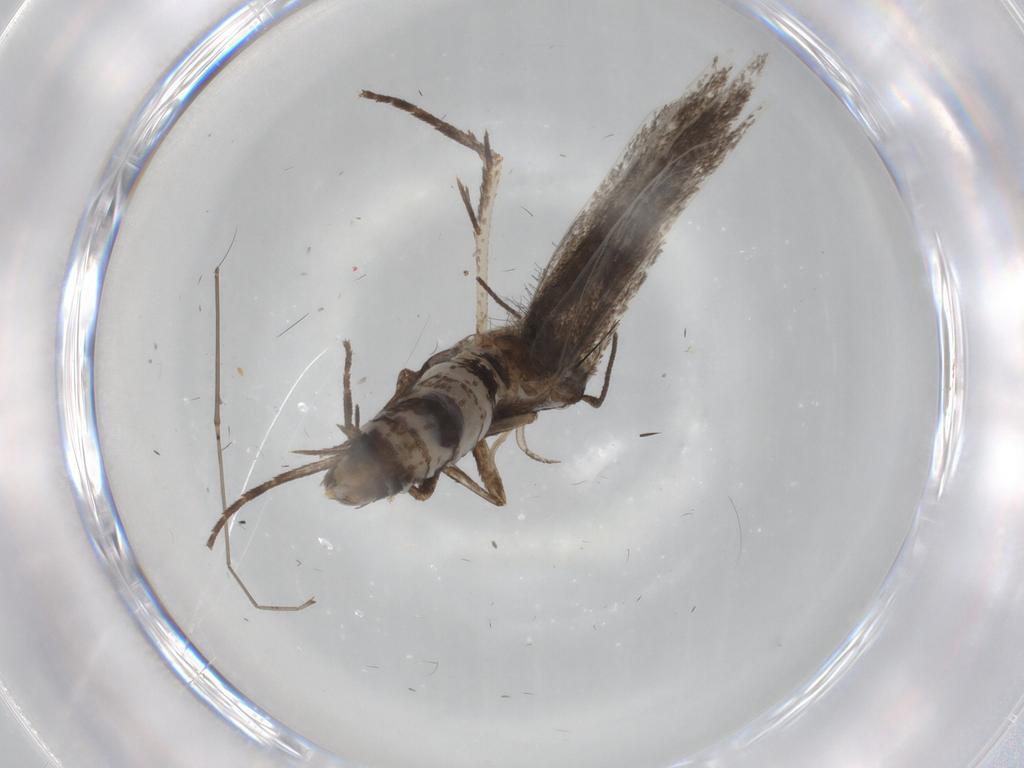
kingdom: Animalia
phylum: Arthropoda
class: Insecta
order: Lepidoptera
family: Gelechiidae
